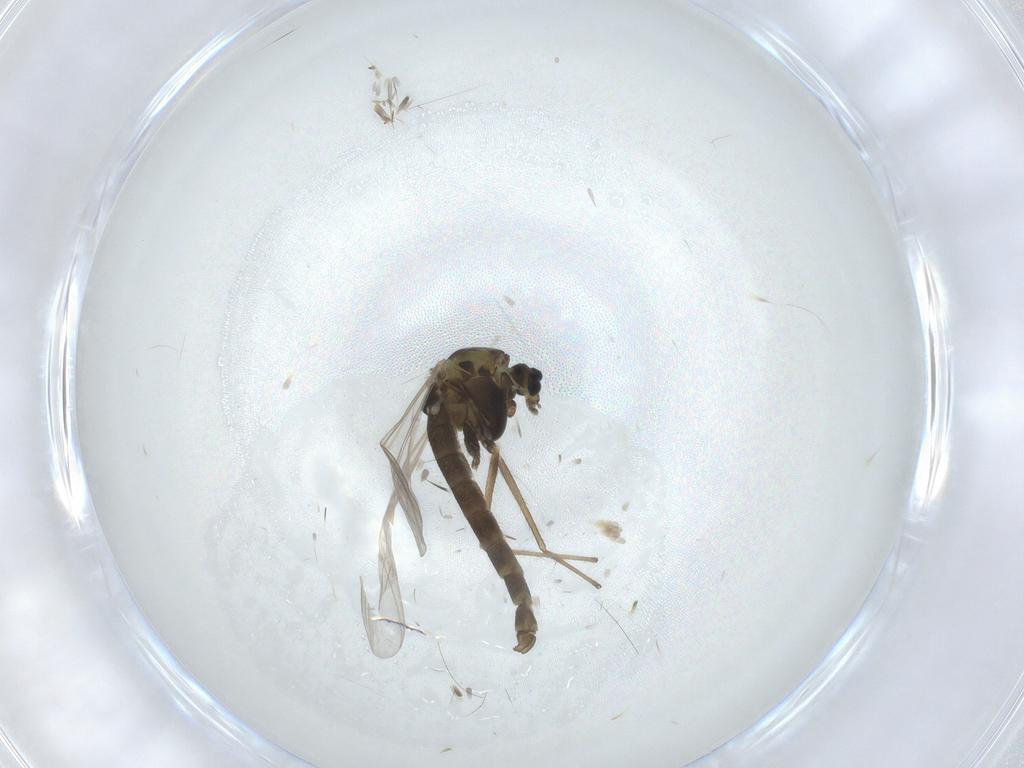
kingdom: Animalia
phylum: Arthropoda
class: Insecta
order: Diptera
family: Chironomidae
